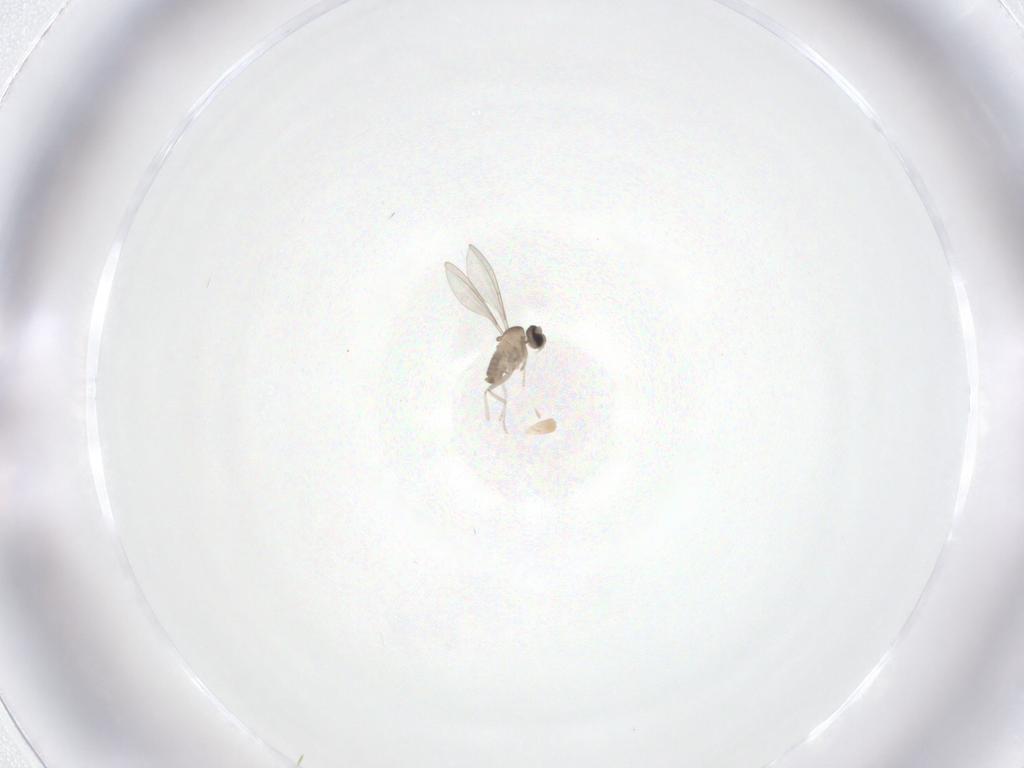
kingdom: Animalia
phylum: Arthropoda
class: Insecta
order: Diptera
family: Cecidomyiidae
